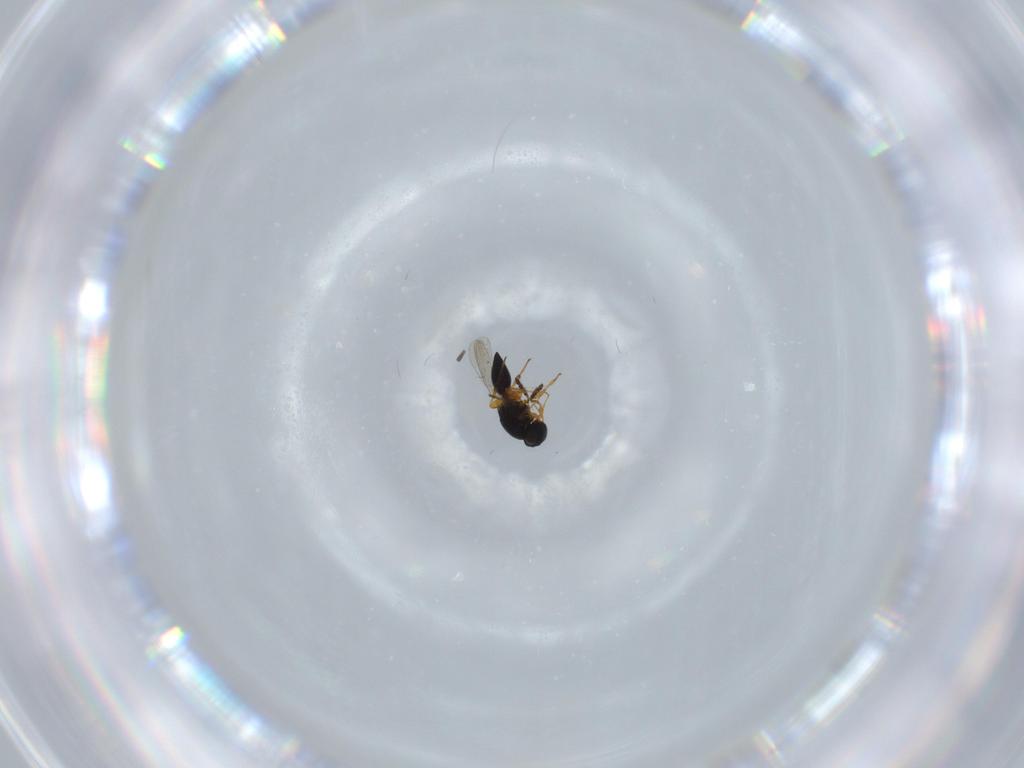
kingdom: Animalia
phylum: Arthropoda
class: Insecta
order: Hymenoptera
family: Platygastridae
